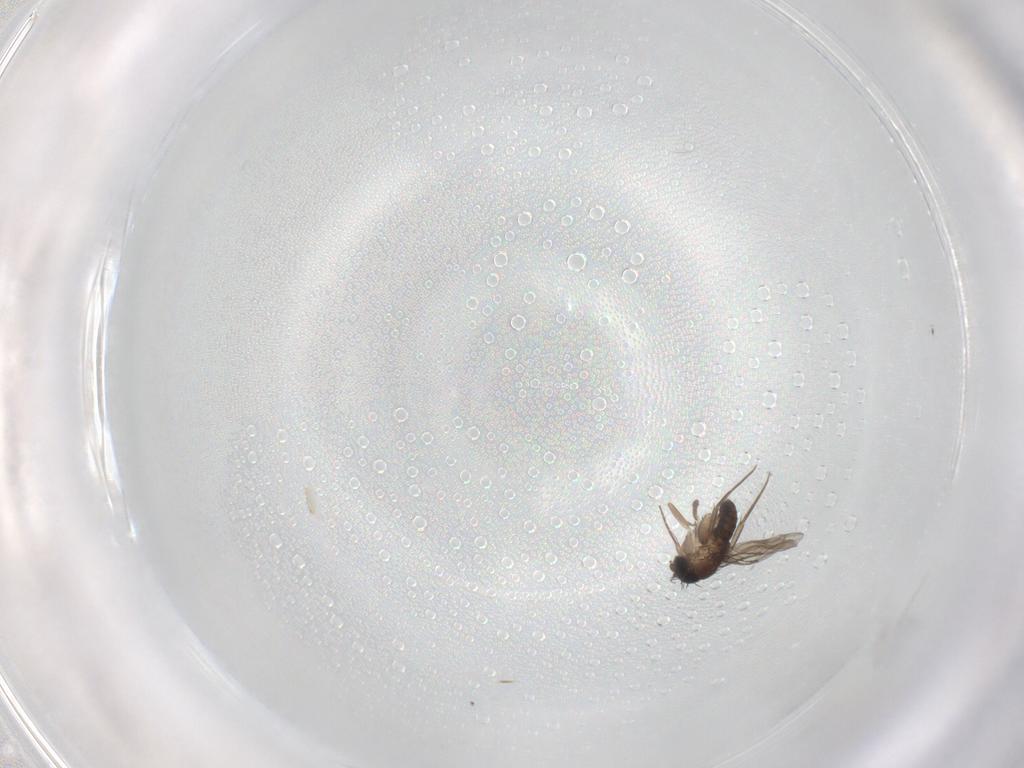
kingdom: Animalia
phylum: Arthropoda
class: Insecta
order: Diptera
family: Phoridae
